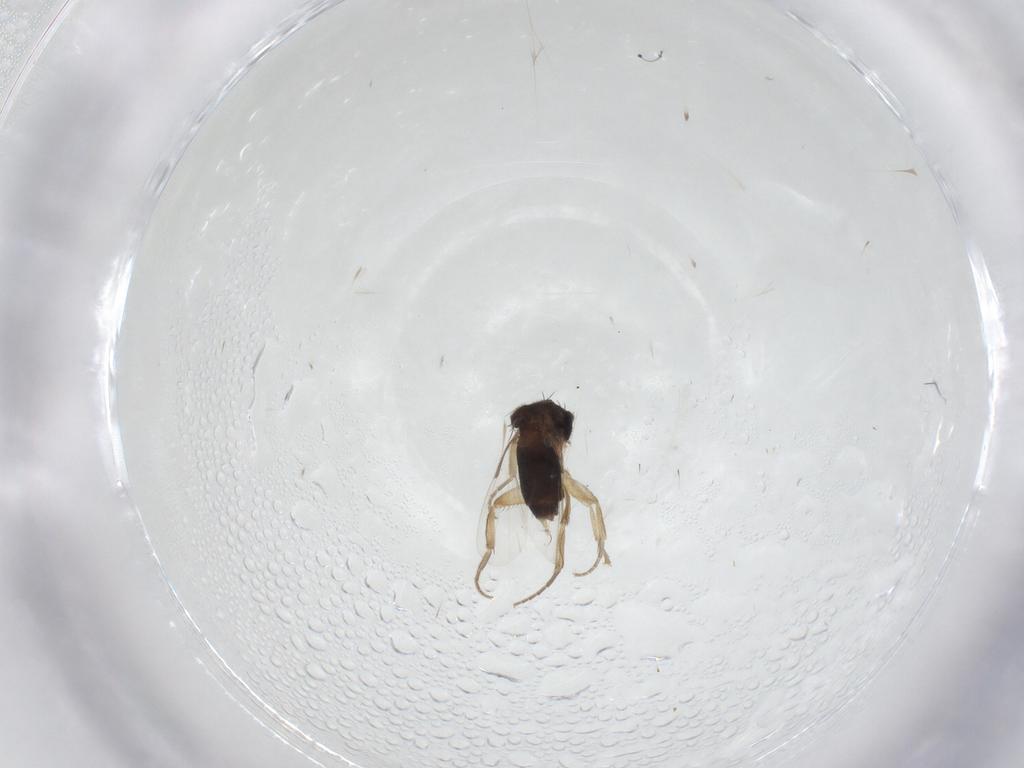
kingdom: Animalia
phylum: Arthropoda
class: Insecta
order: Diptera
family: Phoridae
